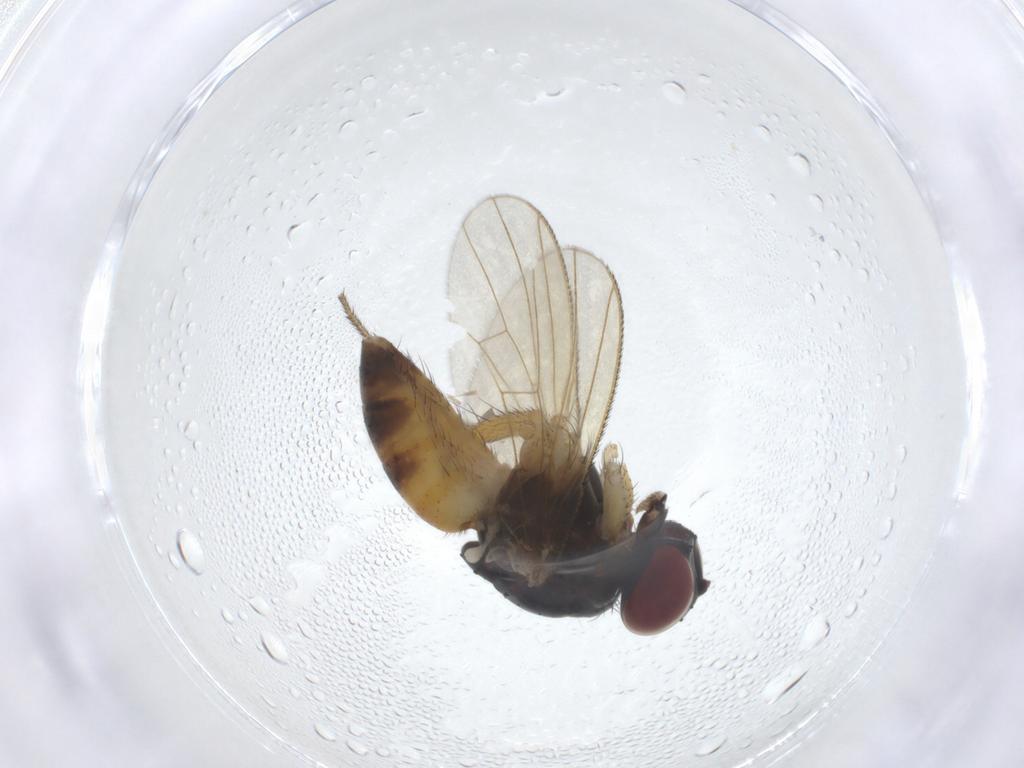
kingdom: Animalia
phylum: Arthropoda
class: Insecta
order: Diptera
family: Muscidae
